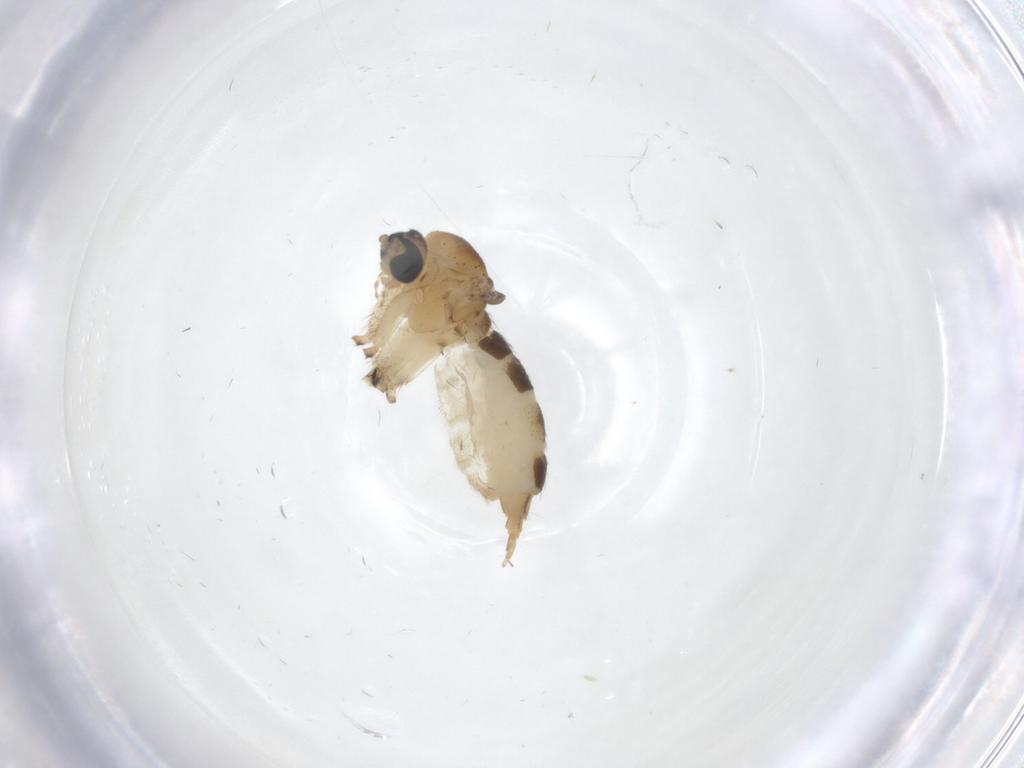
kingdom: Animalia
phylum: Arthropoda
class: Insecta
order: Diptera
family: Sciaridae
